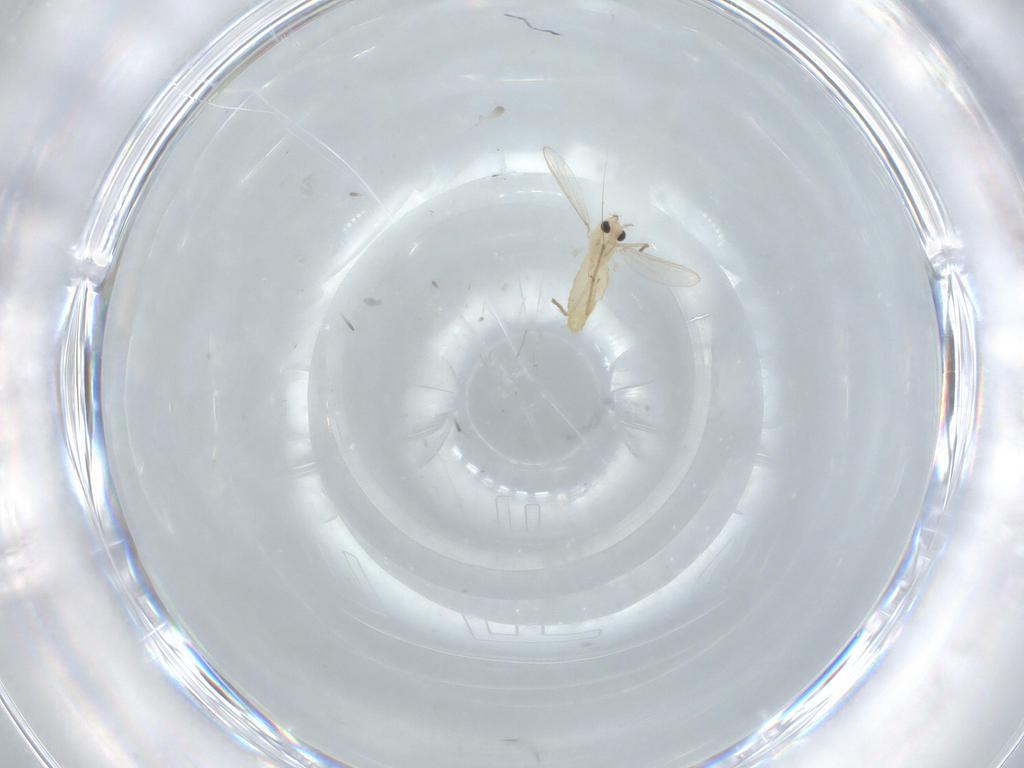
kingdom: Animalia
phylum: Arthropoda
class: Insecta
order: Diptera
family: Chironomidae
